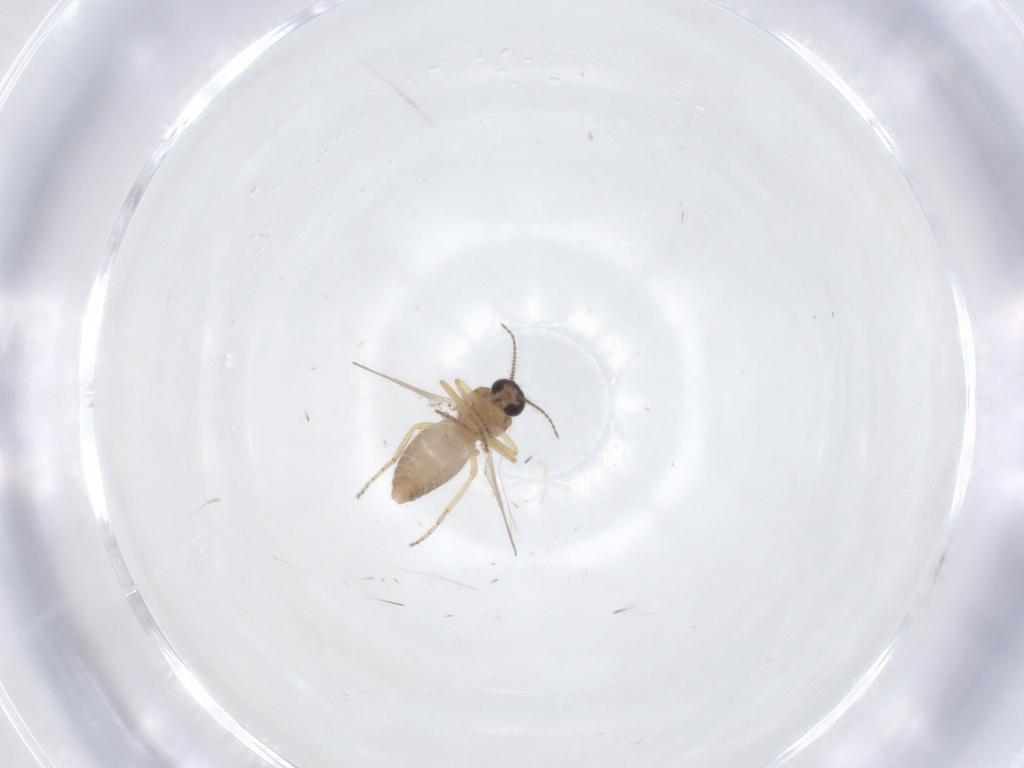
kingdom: Animalia
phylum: Arthropoda
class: Insecta
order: Diptera
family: Ceratopogonidae
